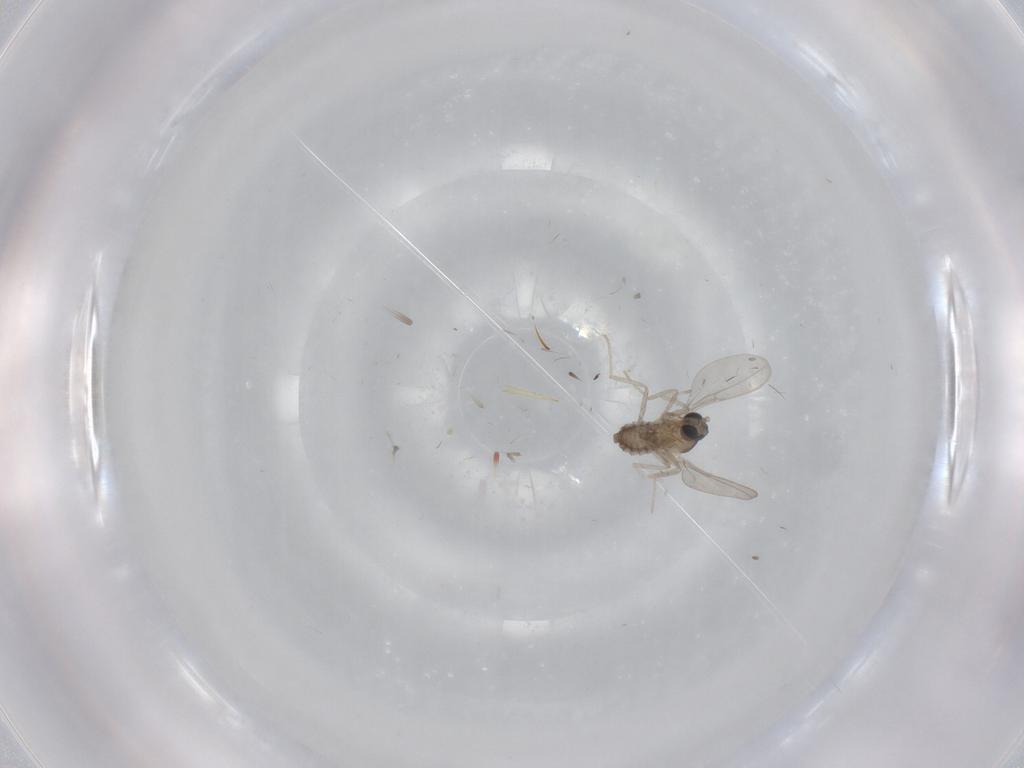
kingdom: Animalia
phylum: Arthropoda
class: Insecta
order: Diptera
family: Cecidomyiidae
